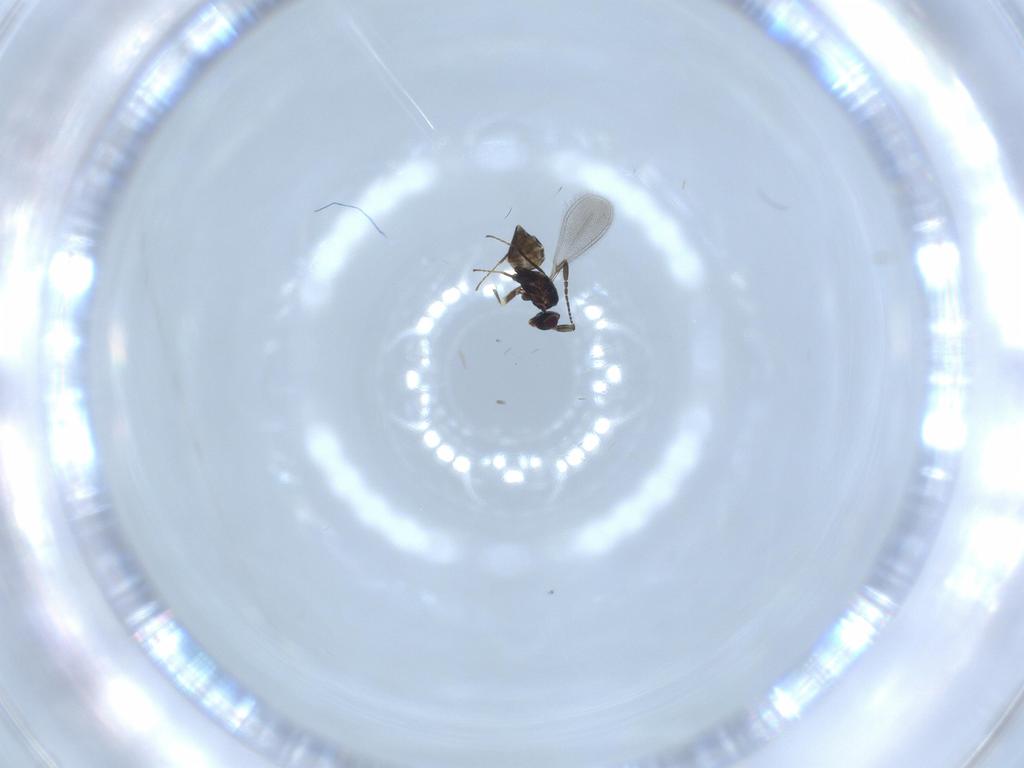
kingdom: Animalia
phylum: Arthropoda
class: Insecta
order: Hymenoptera
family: Mymaridae
